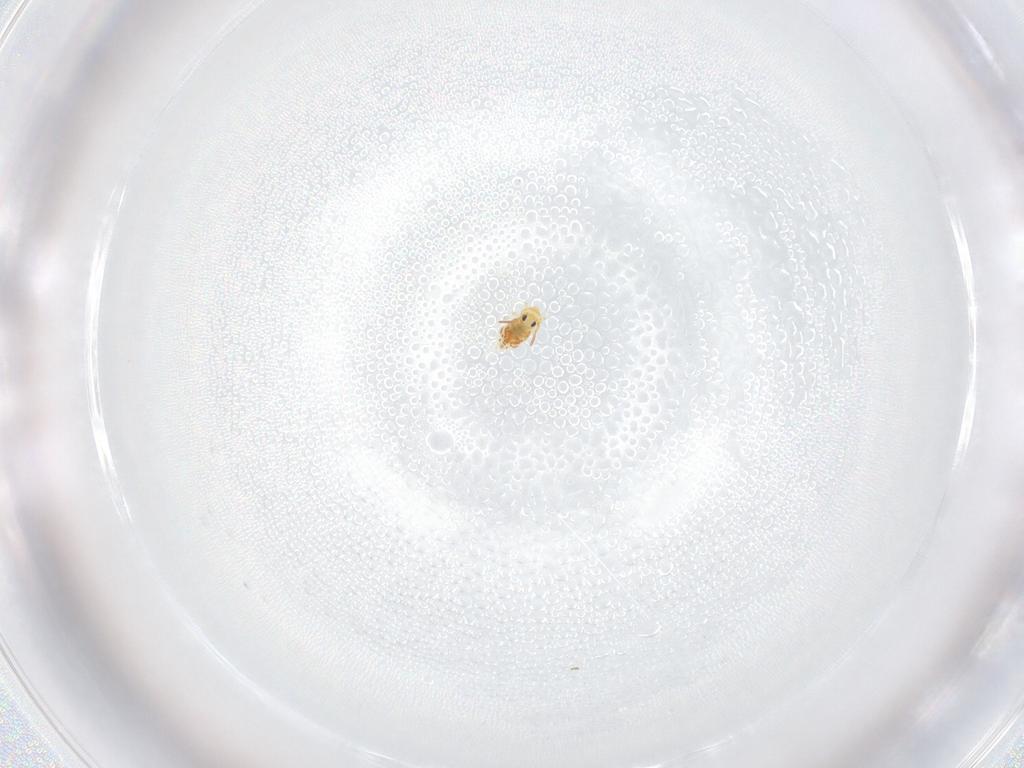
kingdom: Animalia
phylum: Arthropoda
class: Collembola
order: Symphypleona
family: Bourletiellidae
